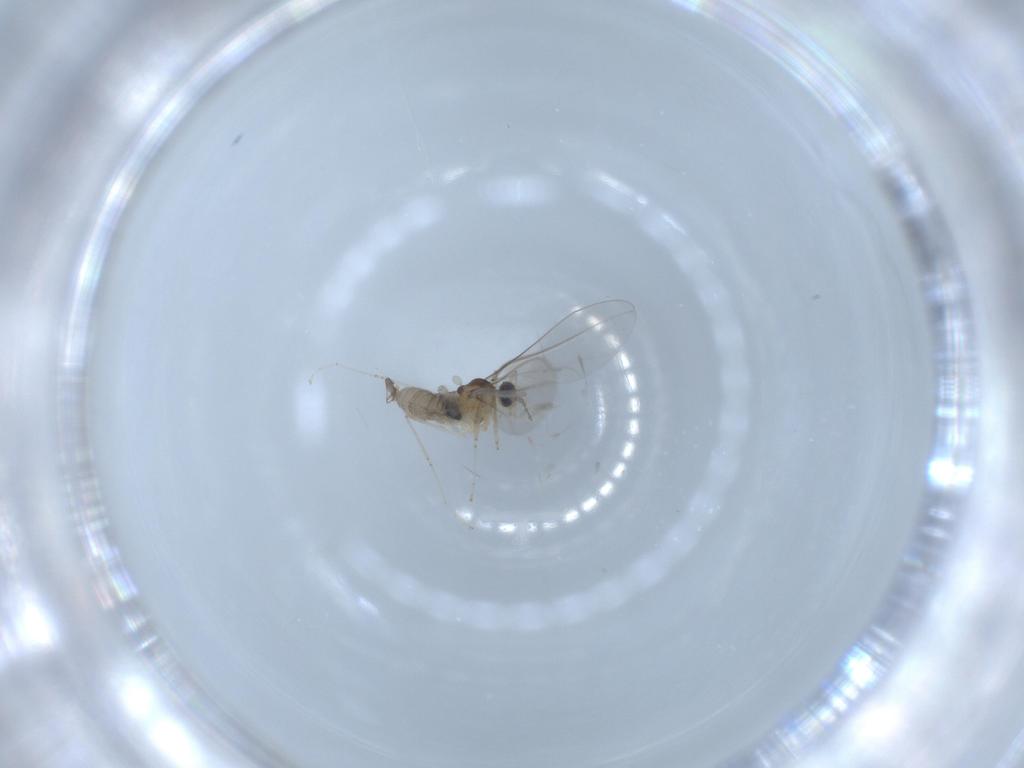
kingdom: Animalia
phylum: Arthropoda
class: Insecta
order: Diptera
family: Cecidomyiidae
